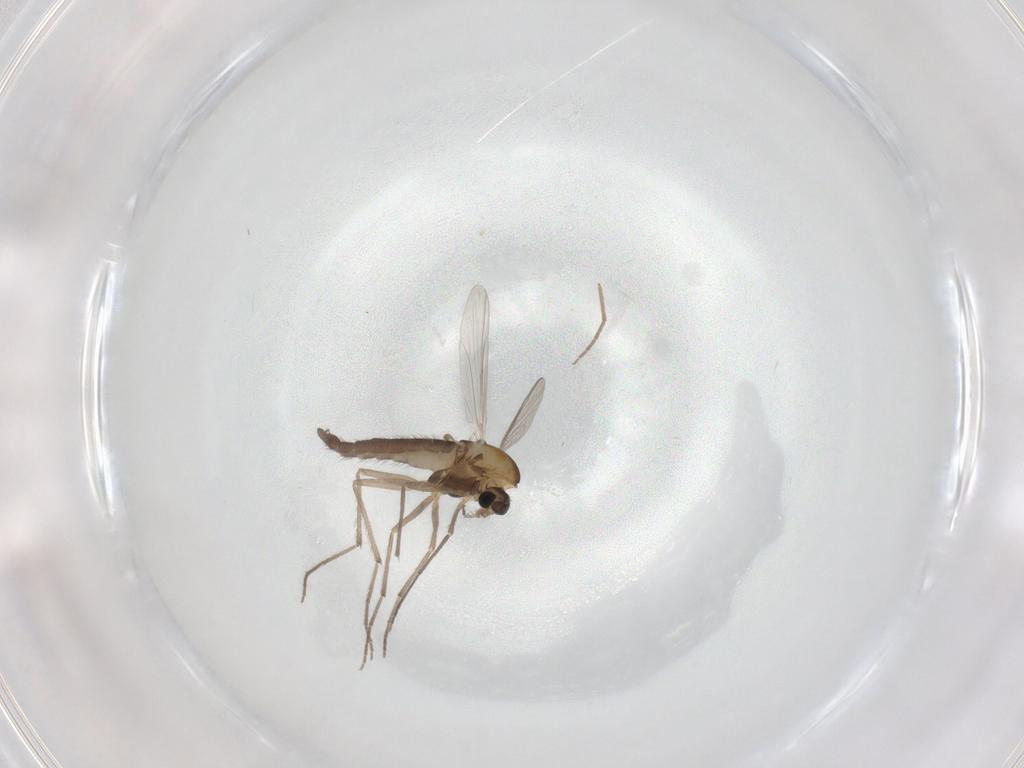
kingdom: Animalia
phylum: Arthropoda
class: Insecta
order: Diptera
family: Chironomidae
